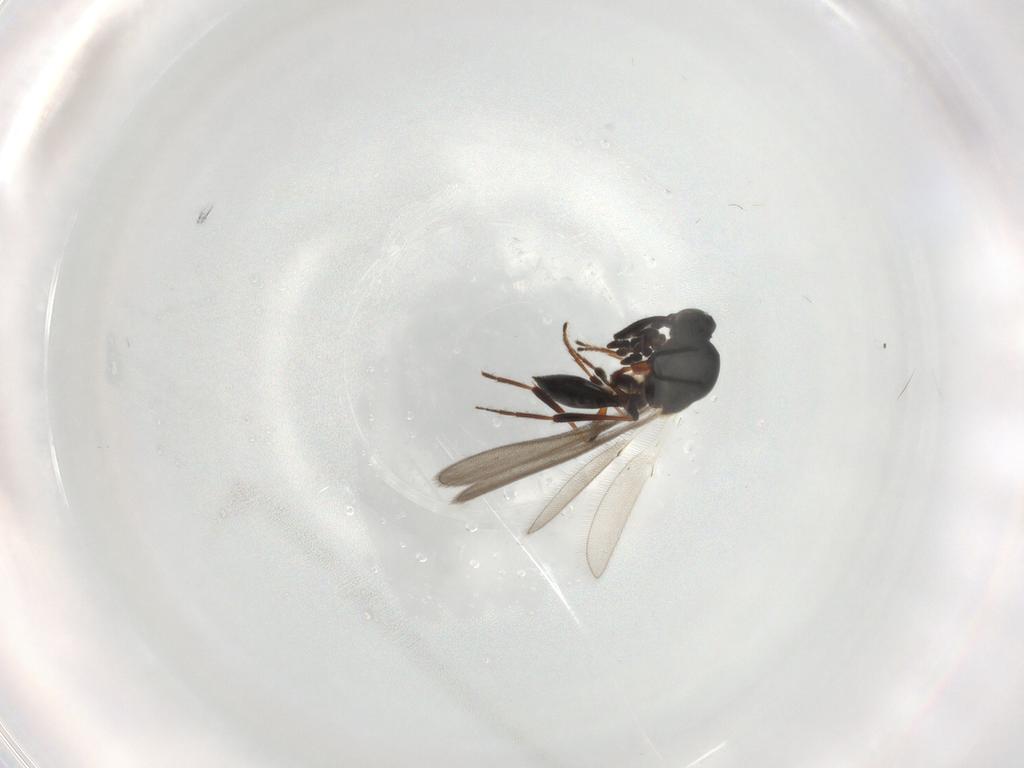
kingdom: Animalia
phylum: Arthropoda
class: Insecta
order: Hymenoptera
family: Platygastridae
